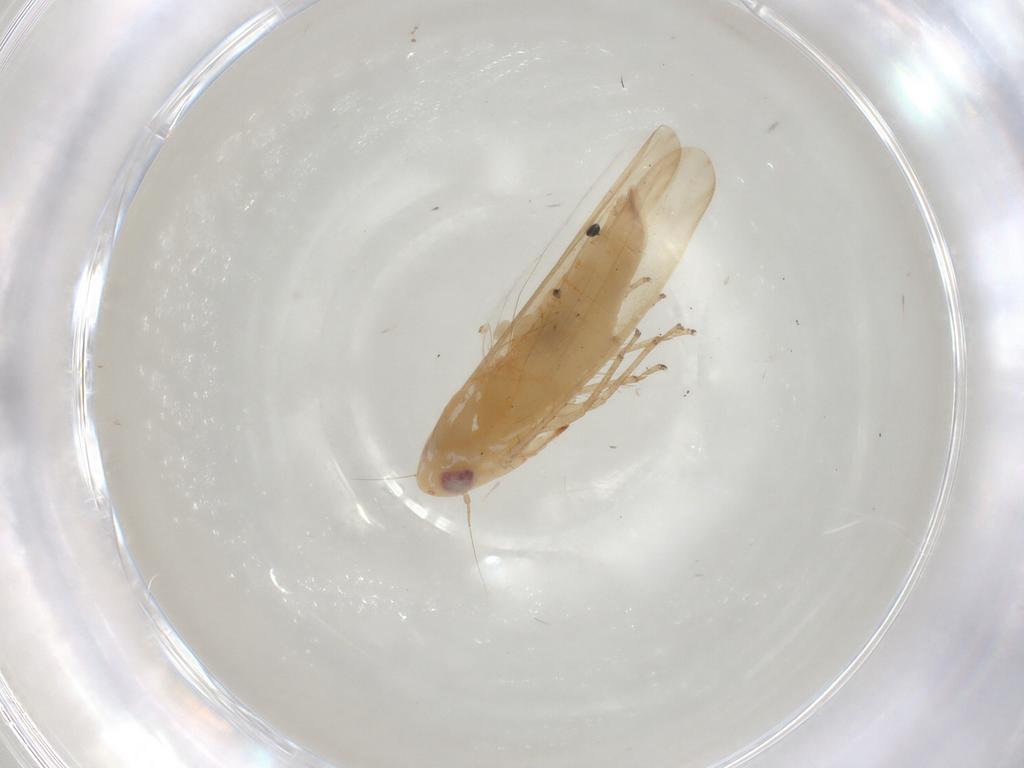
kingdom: Animalia
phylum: Arthropoda
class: Insecta
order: Hemiptera
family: Cicadellidae
